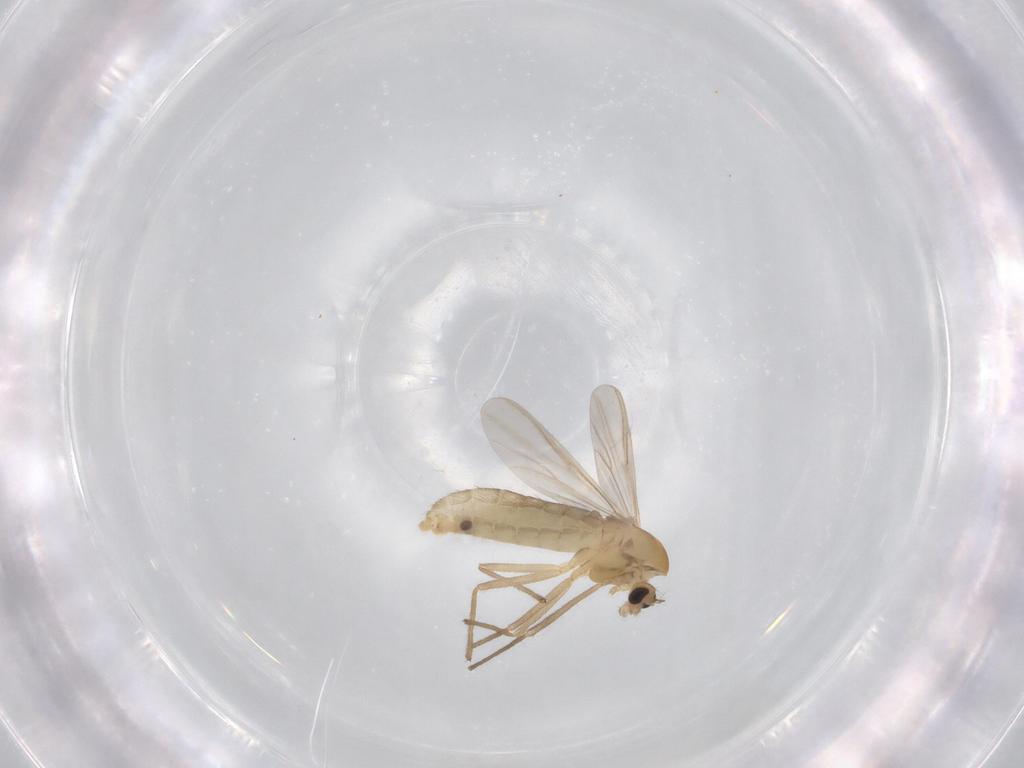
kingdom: Animalia
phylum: Arthropoda
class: Insecta
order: Diptera
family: Chironomidae
